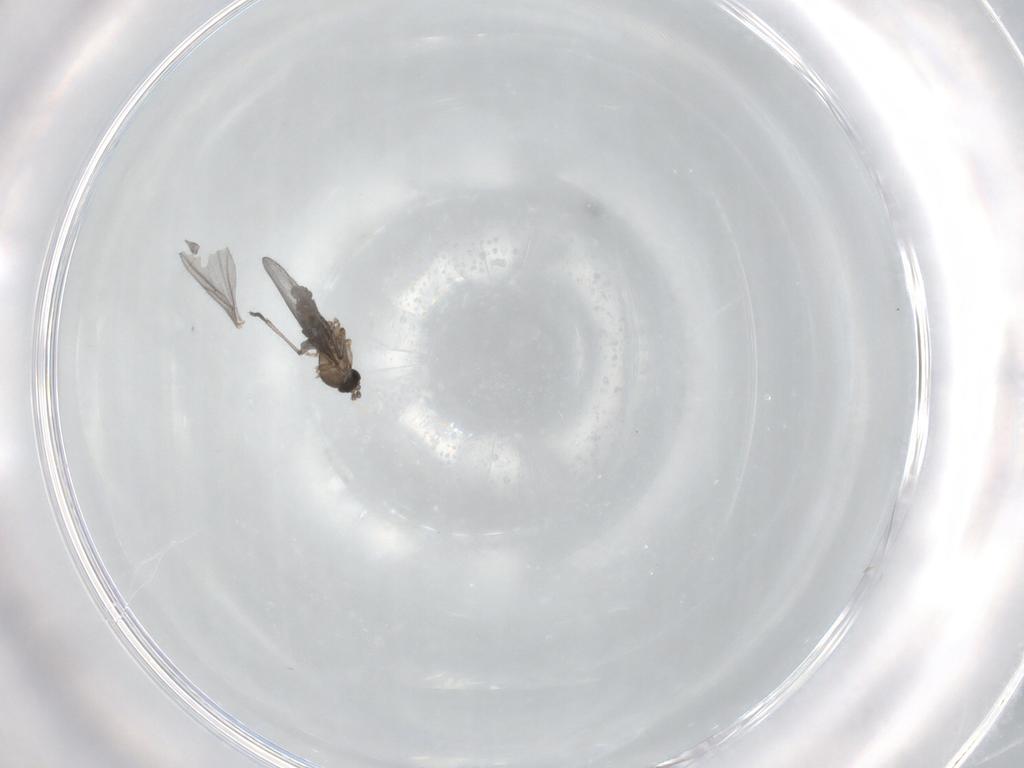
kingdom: Animalia
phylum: Arthropoda
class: Insecta
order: Diptera
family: Sciaridae
